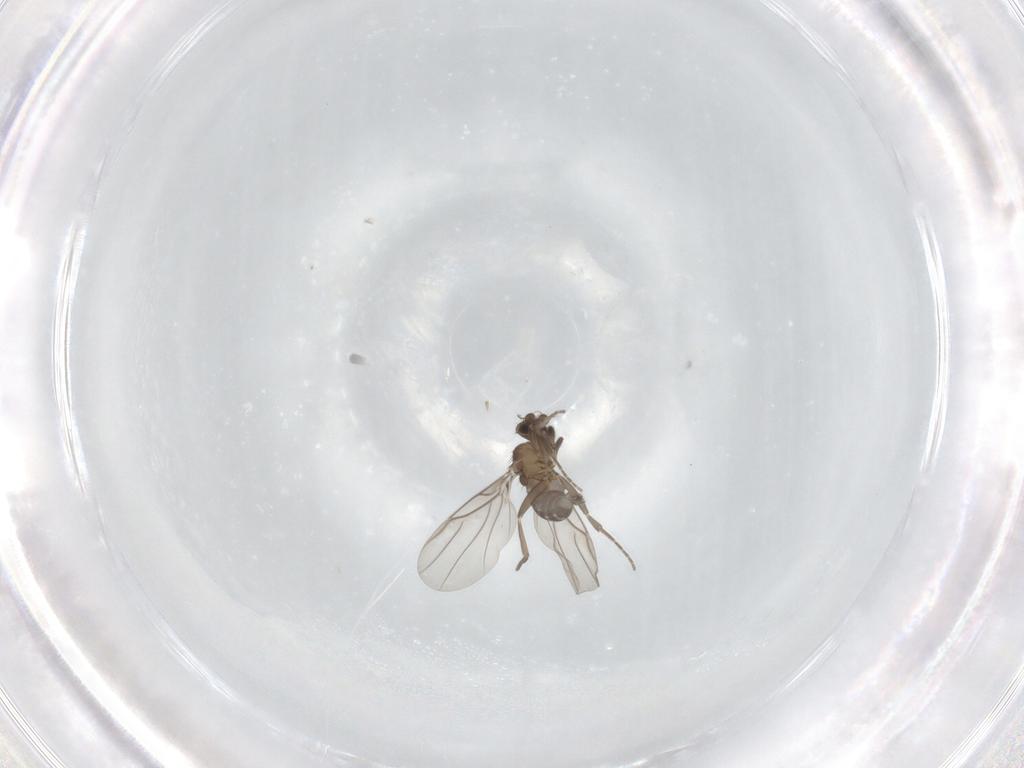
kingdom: Animalia
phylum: Arthropoda
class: Insecta
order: Diptera
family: Phoridae
